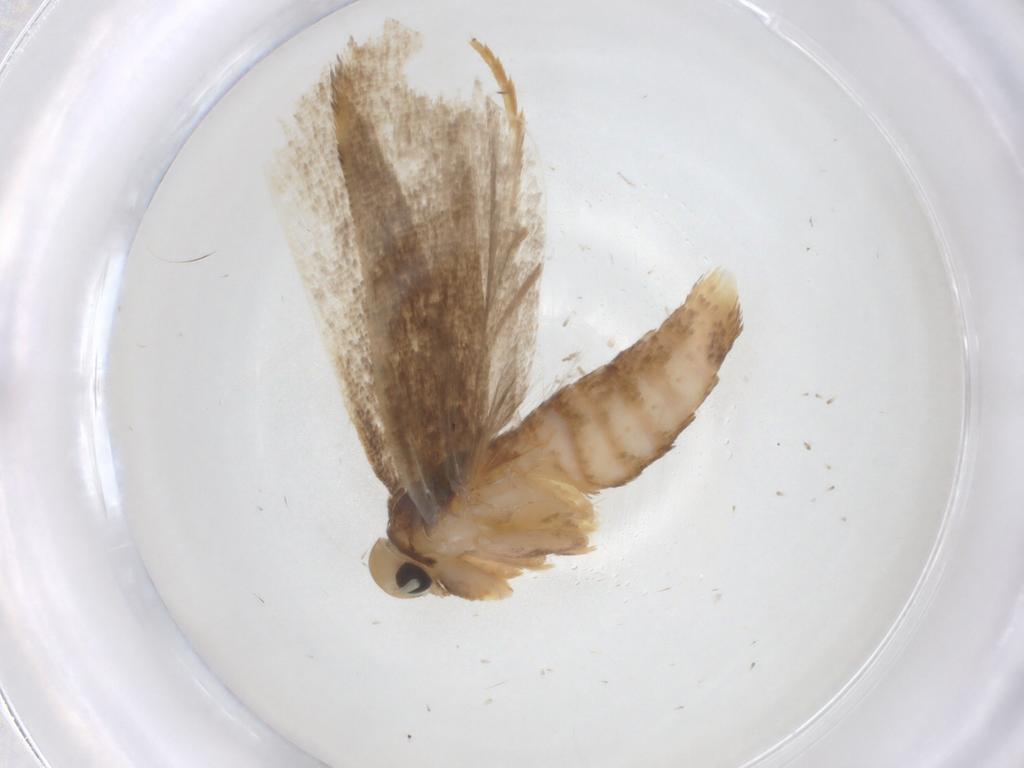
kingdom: Animalia
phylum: Arthropoda
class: Insecta
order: Lepidoptera
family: Gelechiidae
